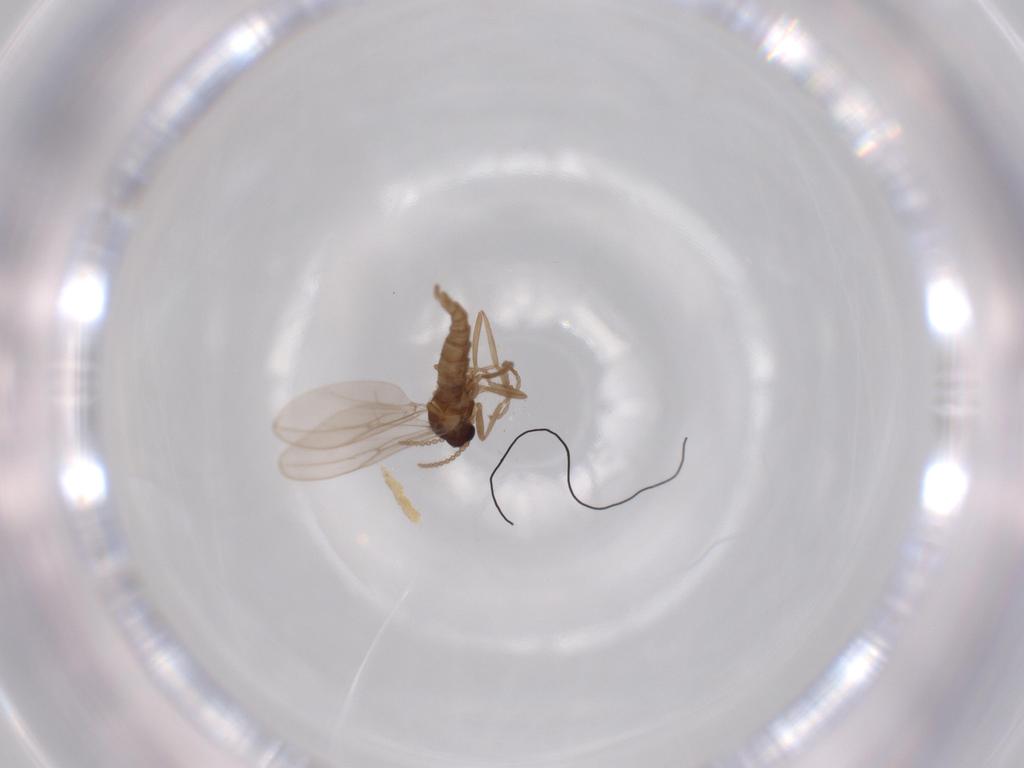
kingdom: Animalia
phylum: Arthropoda
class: Insecta
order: Diptera
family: Cecidomyiidae
